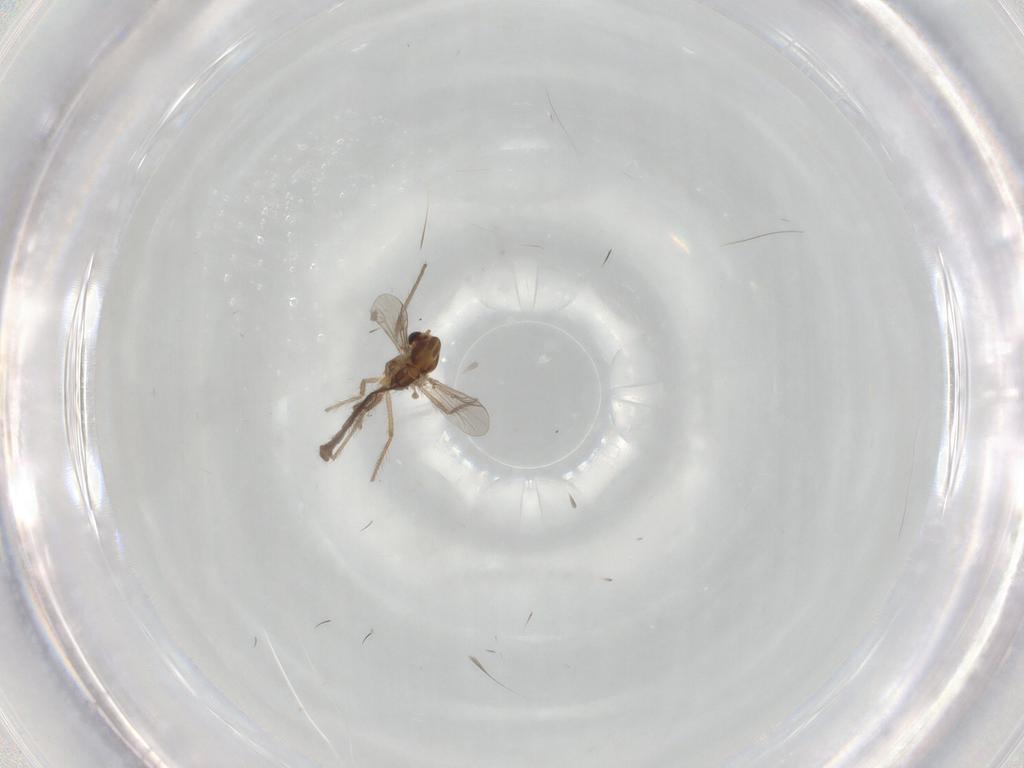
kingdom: Animalia
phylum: Arthropoda
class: Insecta
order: Diptera
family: Chironomidae
